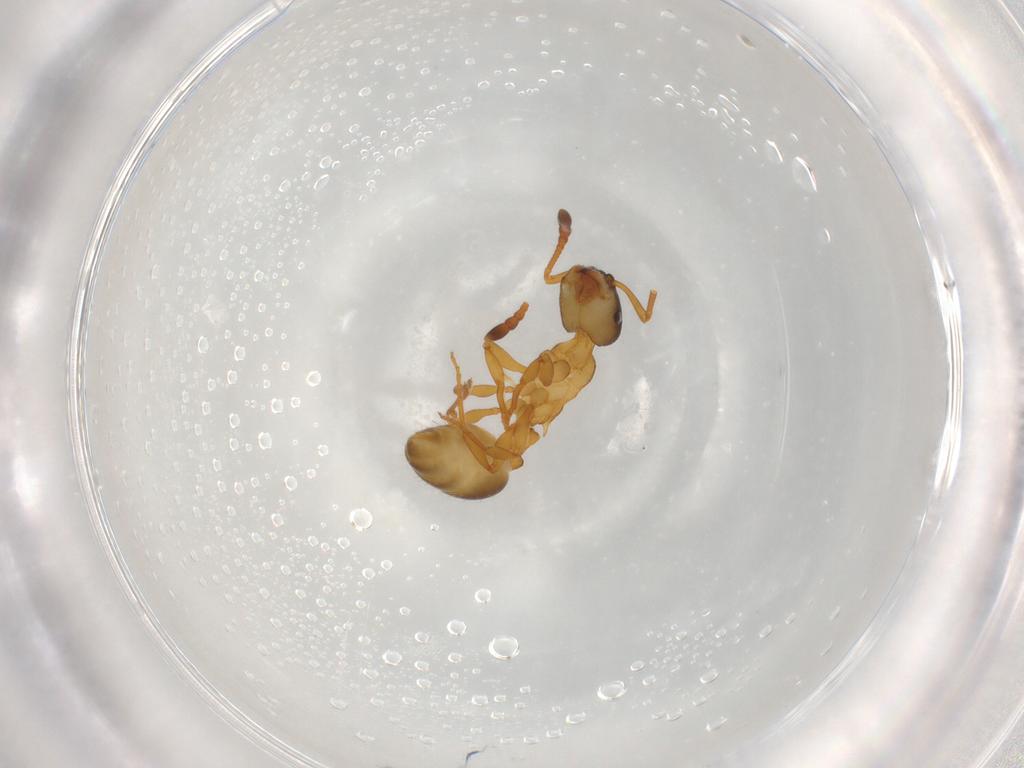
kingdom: Animalia
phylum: Arthropoda
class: Insecta
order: Hymenoptera
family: Formicidae
